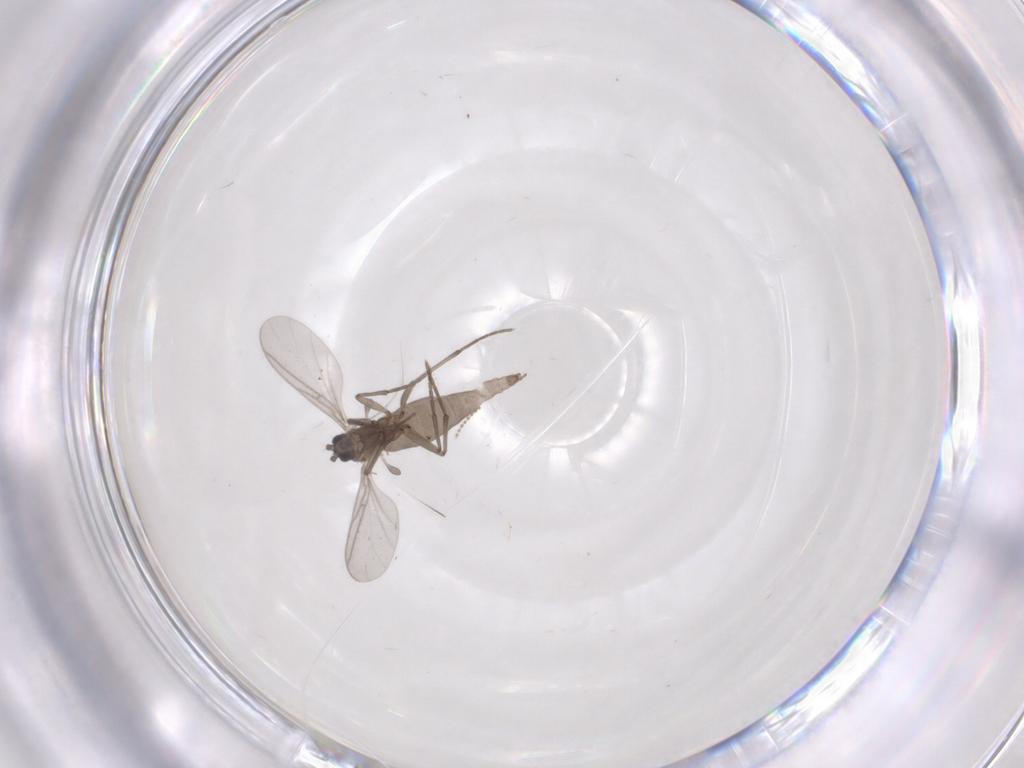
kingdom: Animalia
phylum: Arthropoda
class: Insecta
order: Diptera
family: Sciaridae
